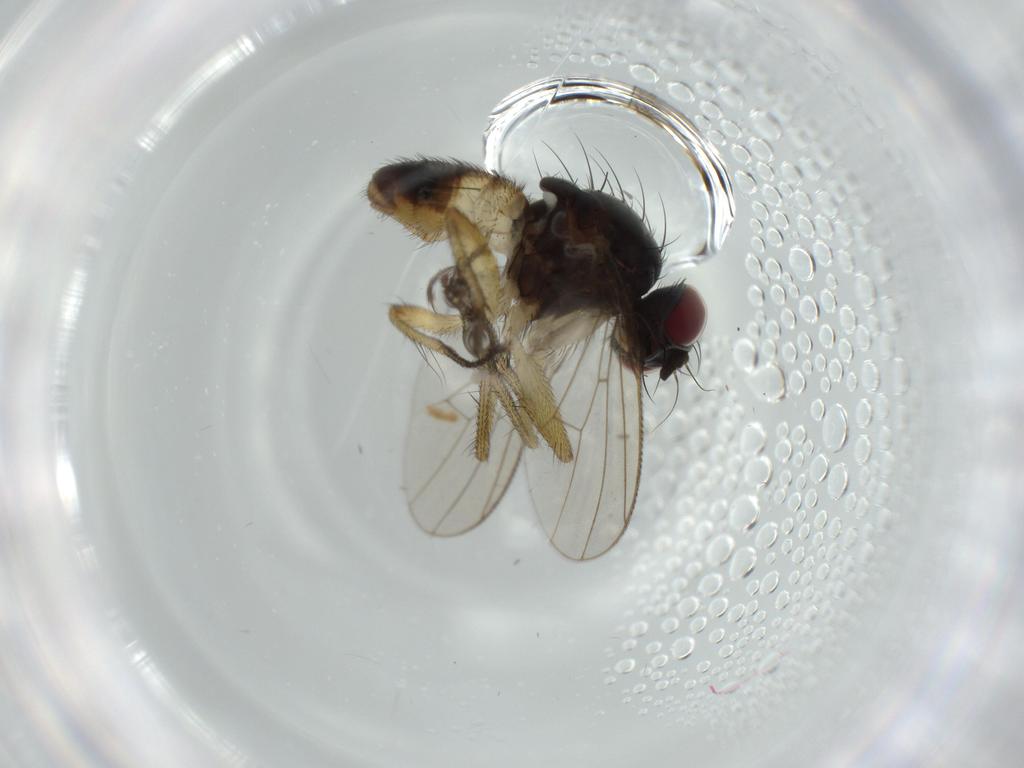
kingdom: Animalia
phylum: Arthropoda
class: Insecta
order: Diptera
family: Muscidae
